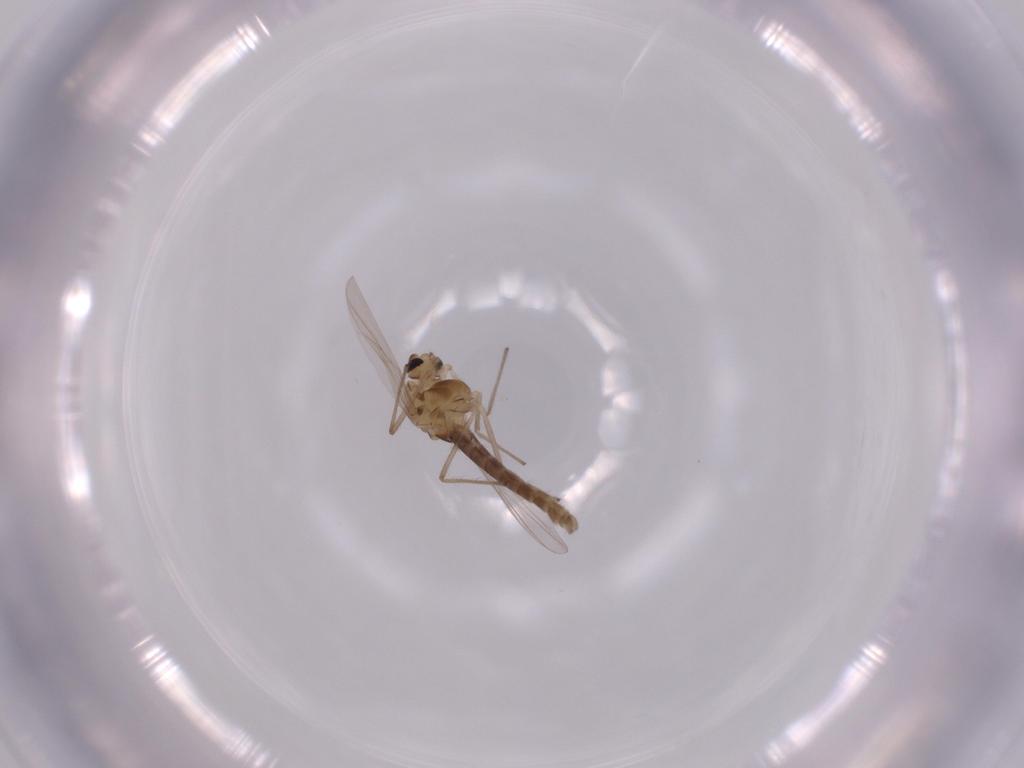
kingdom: Animalia
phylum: Arthropoda
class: Insecta
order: Diptera
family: Chironomidae
